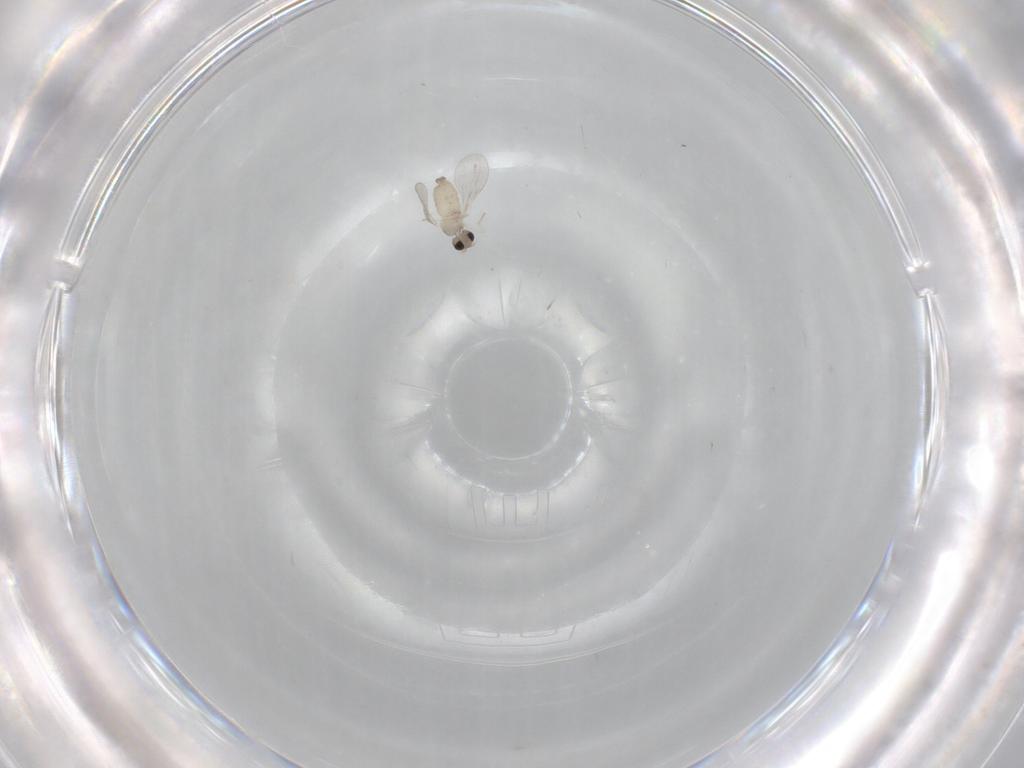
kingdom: Animalia
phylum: Arthropoda
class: Insecta
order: Diptera
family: Cecidomyiidae
